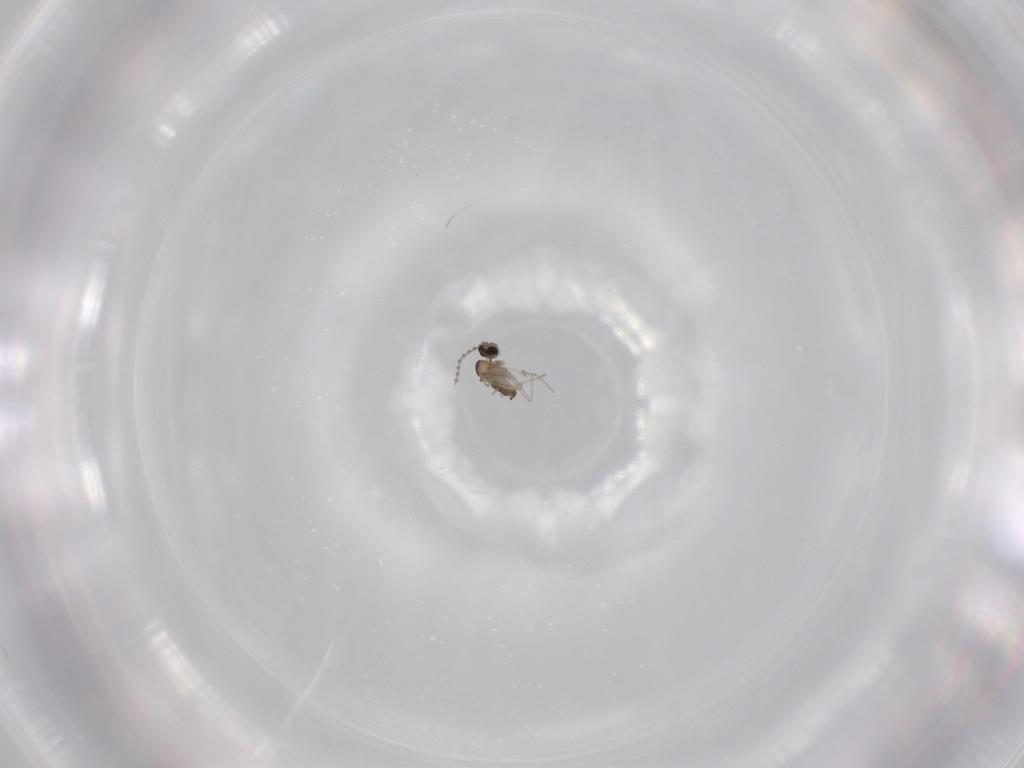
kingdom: Animalia
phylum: Arthropoda
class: Insecta
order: Diptera
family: Cecidomyiidae
